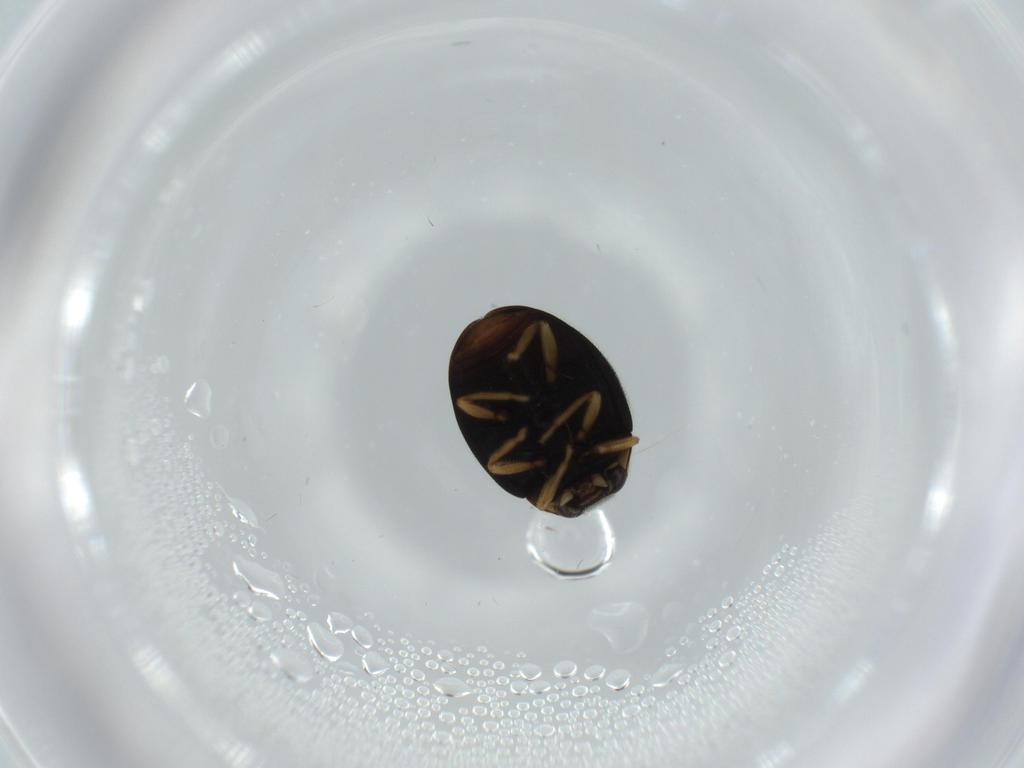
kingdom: Animalia
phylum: Arthropoda
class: Insecta
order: Coleoptera
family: Coccinellidae
